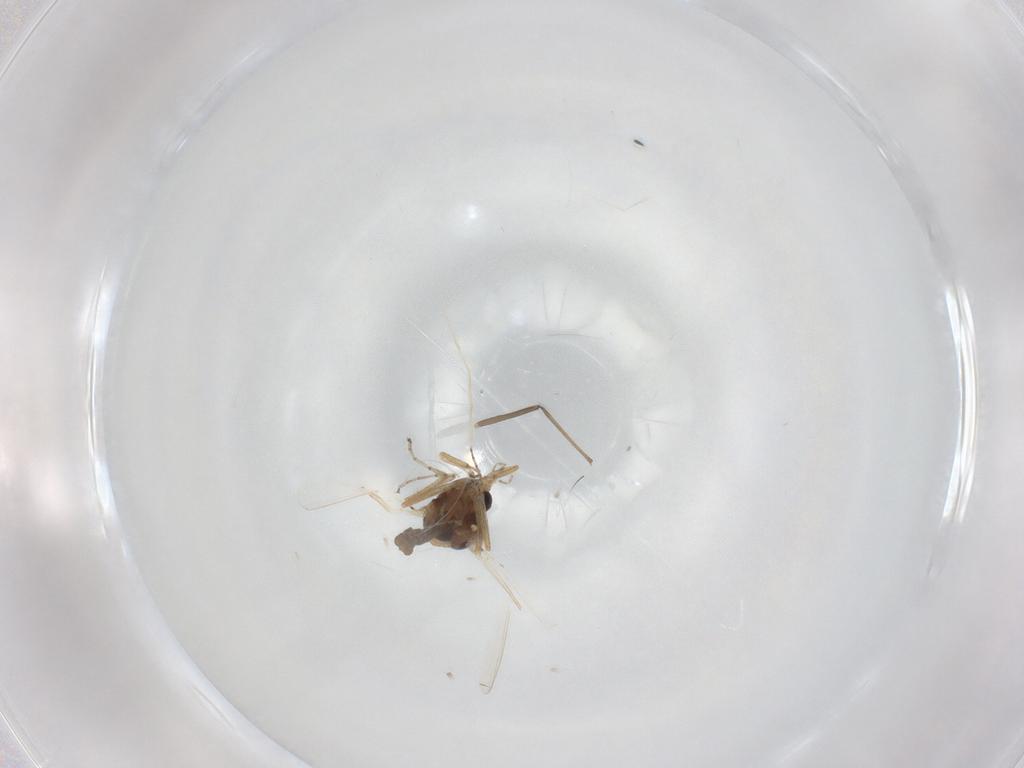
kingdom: Animalia
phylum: Arthropoda
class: Insecta
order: Diptera
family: Ceratopogonidae
